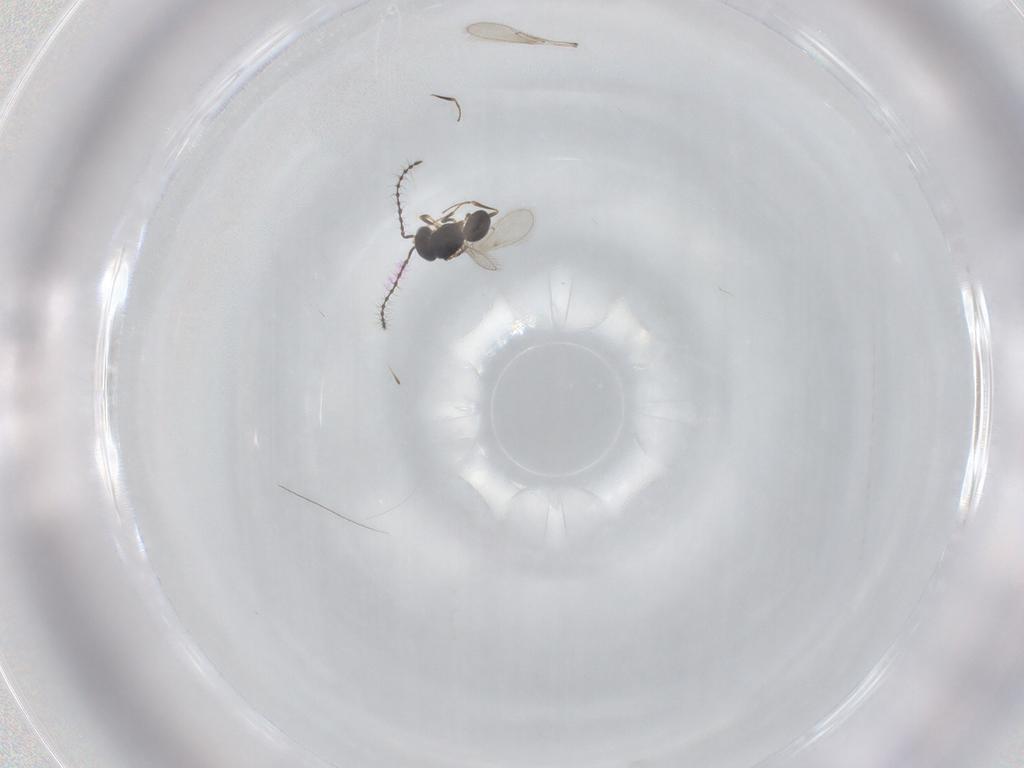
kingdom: Animalia
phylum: Arthropoda
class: Insecta
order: Hymenoptera
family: Scelionidae
